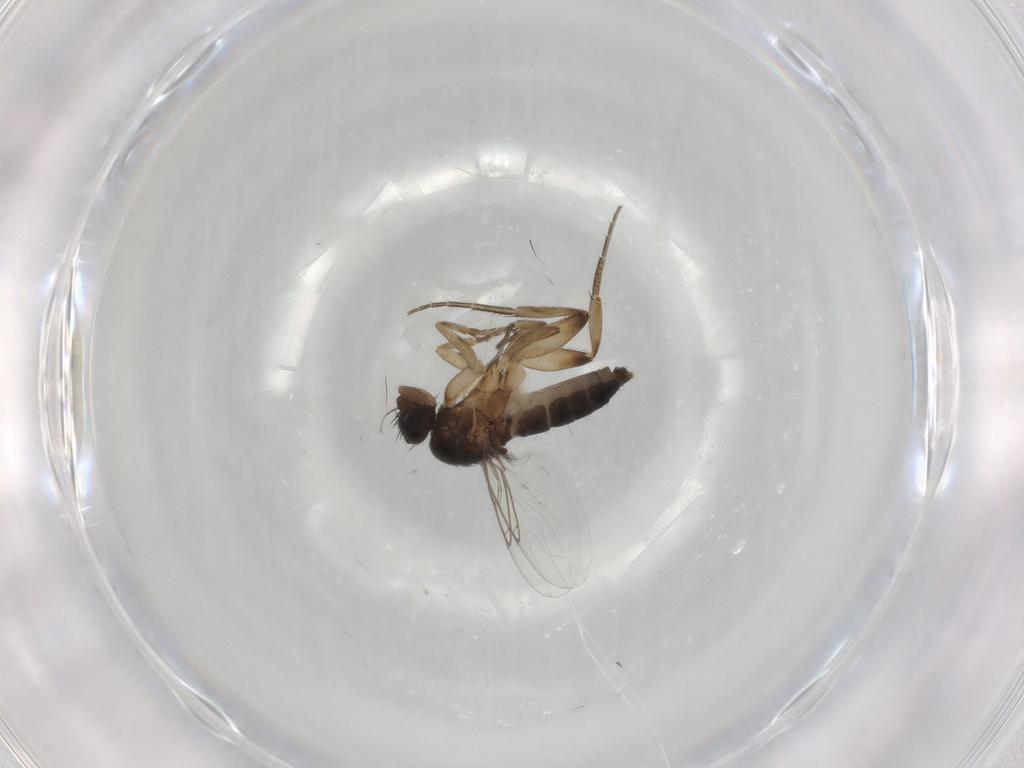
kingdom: Animalia
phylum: Arthropoda
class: Insecta
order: Diptera
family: Phoridae
